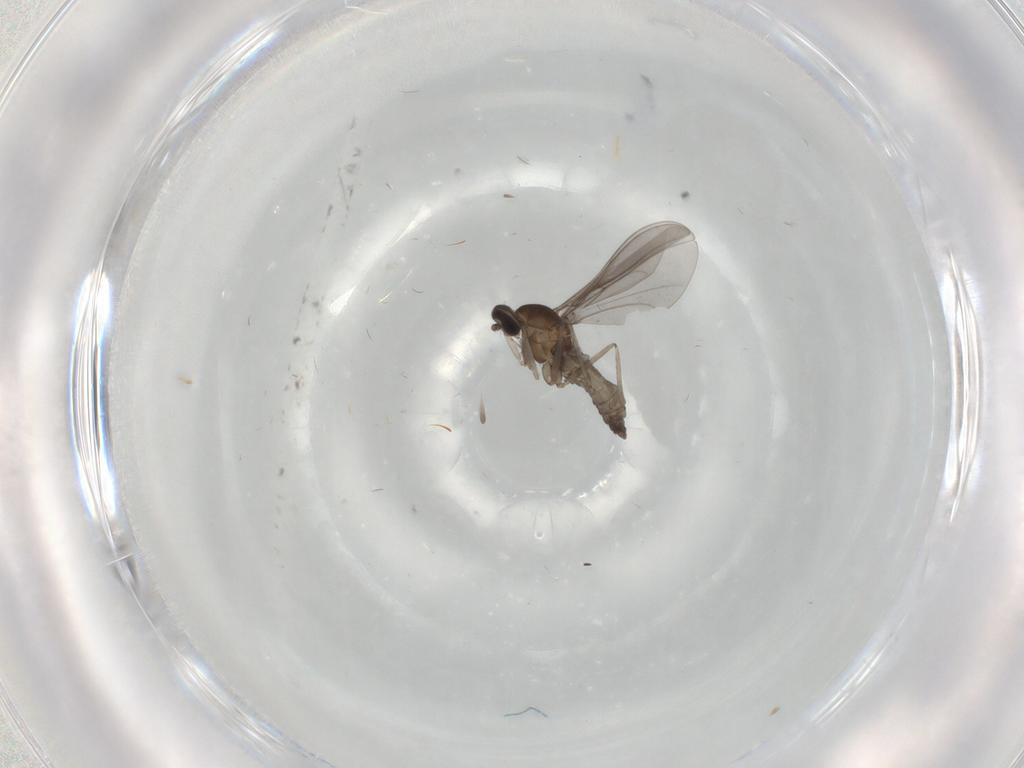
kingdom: Animalia
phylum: Arthropoda
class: Insecta
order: Diptera
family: Cecidomyiidae
